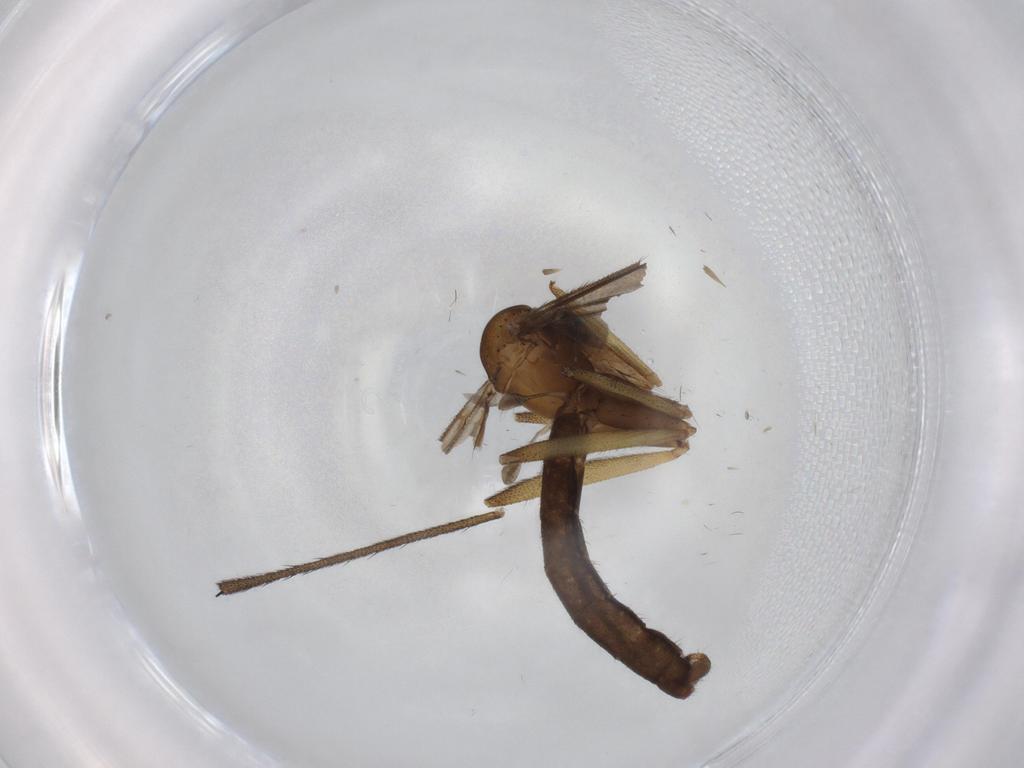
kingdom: Animalia
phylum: Arthropoda
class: Insecta
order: Diptera
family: Ditomyiidae
